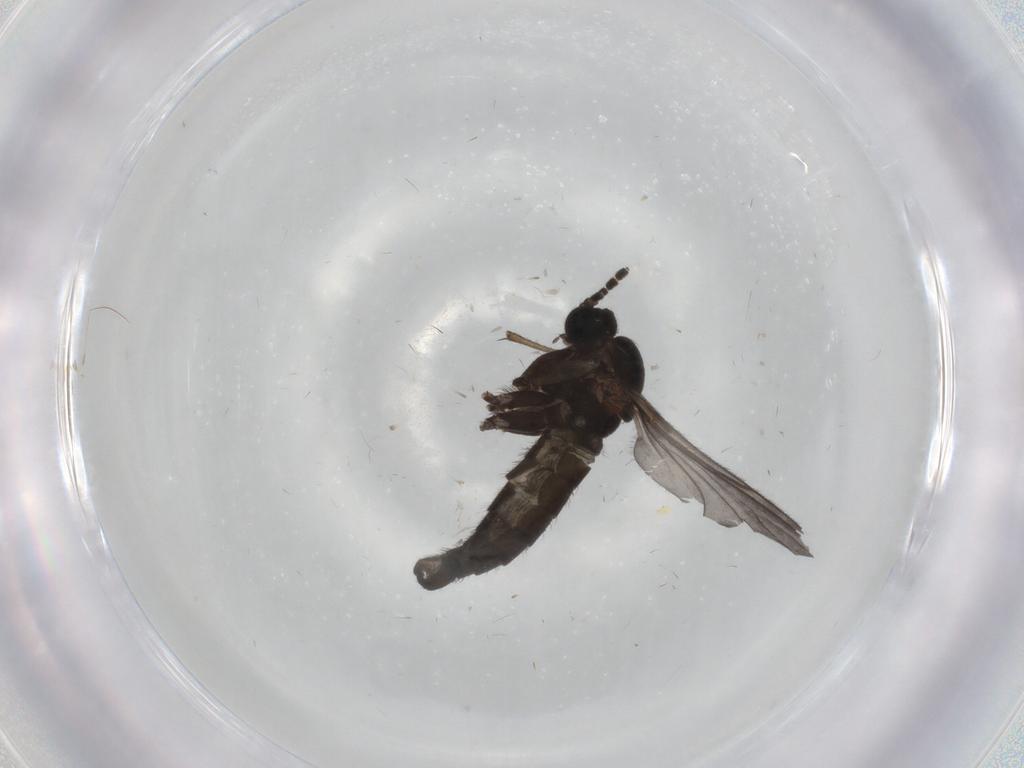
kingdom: Animalia
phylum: Arthropoda
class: Insecta
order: Diptera
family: Sciaridae
